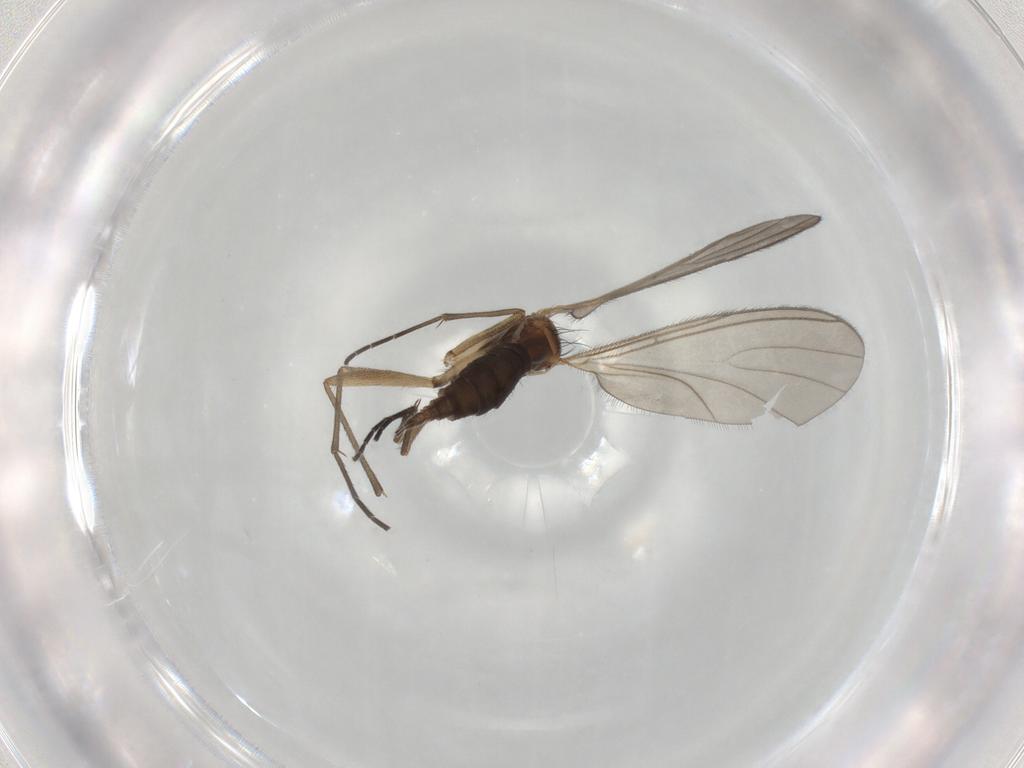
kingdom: Animalia
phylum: Arthropoda
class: Insecta
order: Diptera
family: Sciaridae
